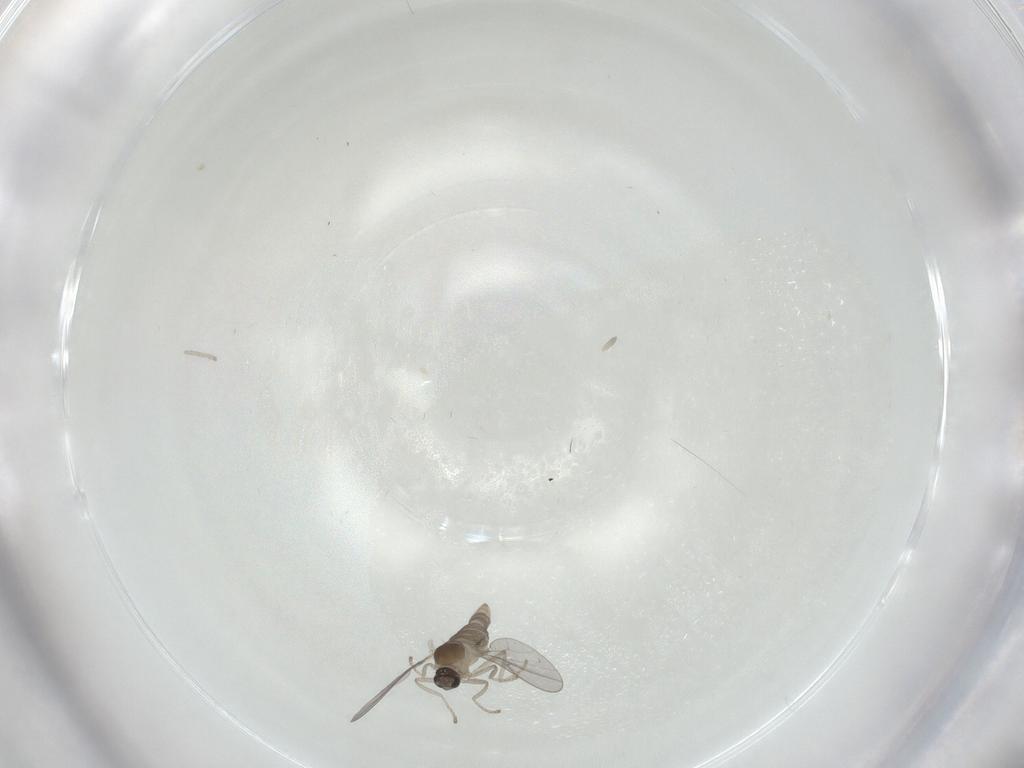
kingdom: Animalia
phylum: Arthropoda
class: Insecta
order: Diptera
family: Cecidomyiidae
